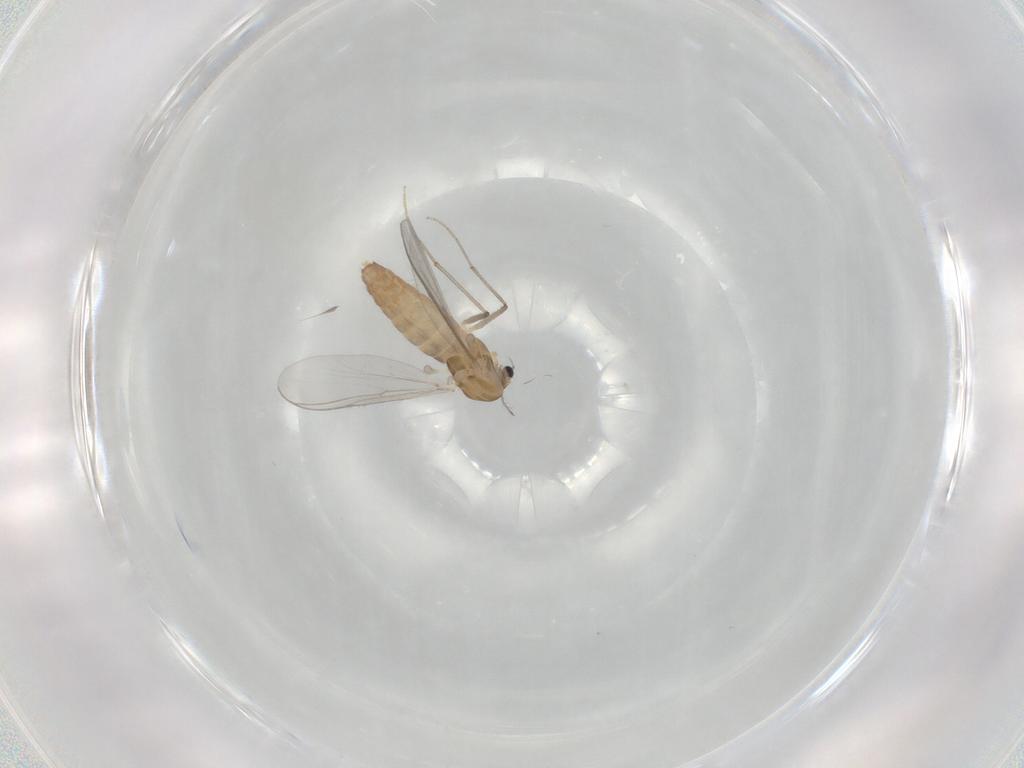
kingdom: Animalia
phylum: Arthropoda
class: Insecta
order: Diptera
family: Chironomidae
